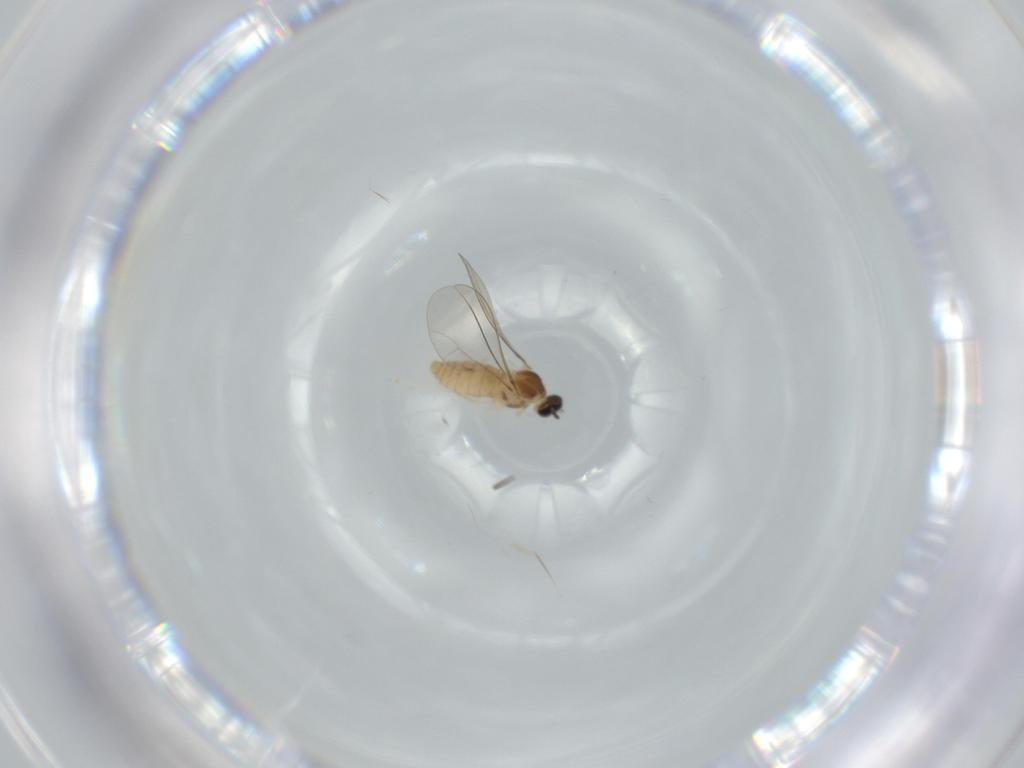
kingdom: Animalia
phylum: Arthropoda
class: Insecta
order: Diptera
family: Cecidomyiidae
